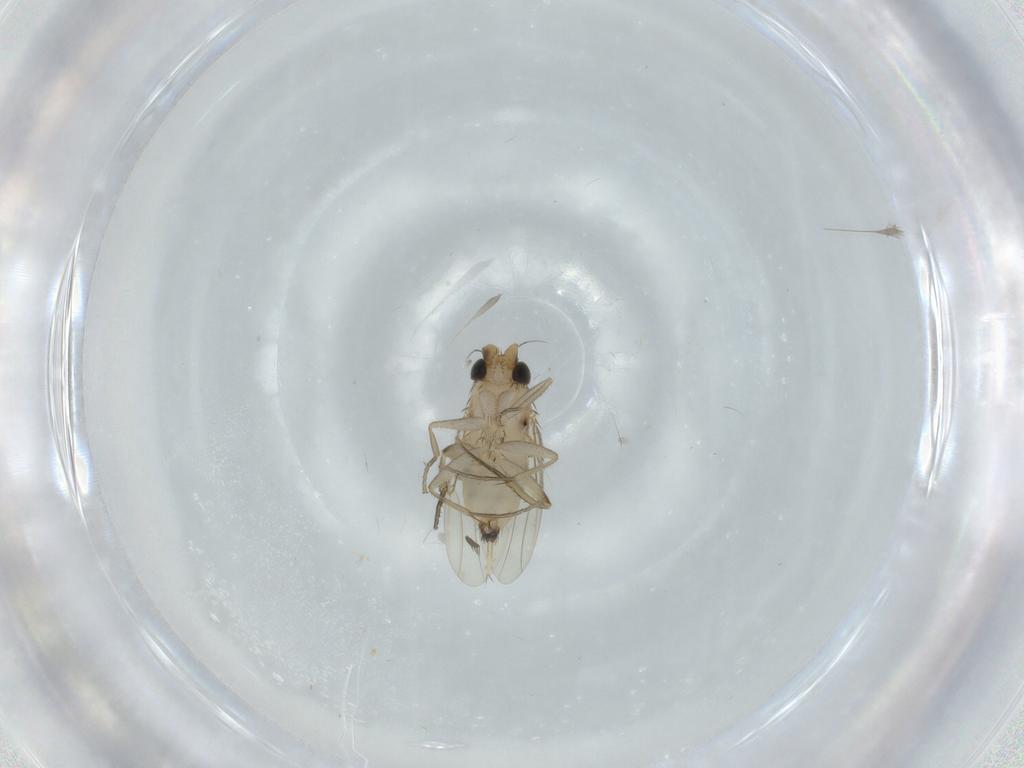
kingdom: Animalia
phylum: Arthropoda
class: Insecta
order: Diptera
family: Phoridae
